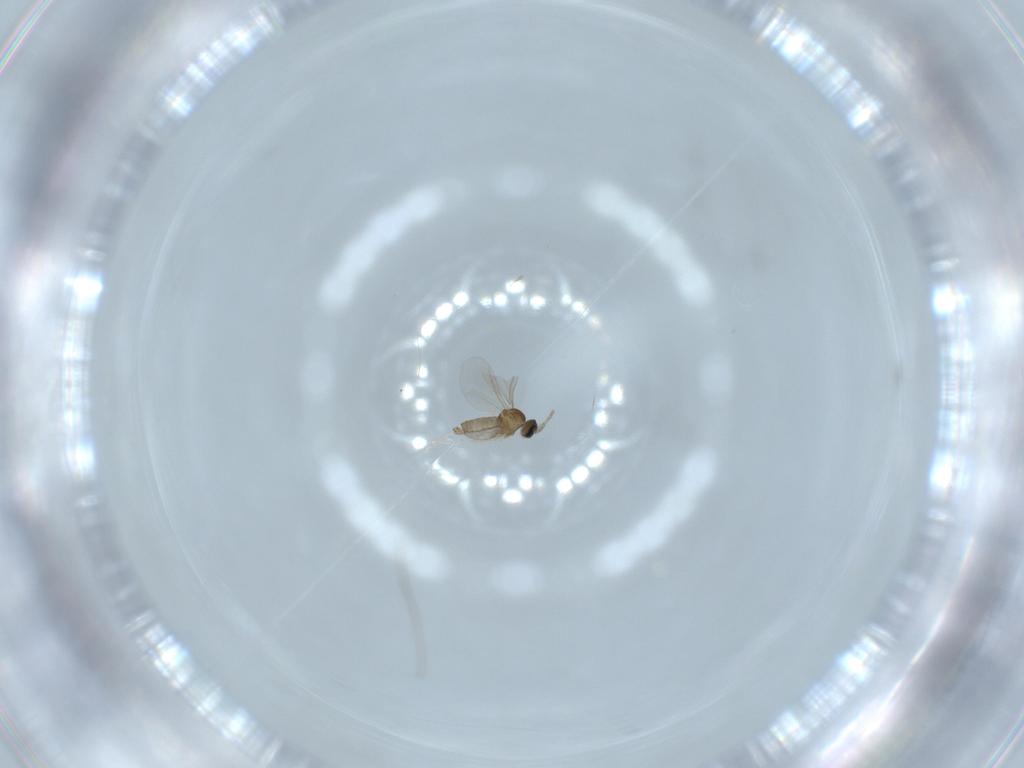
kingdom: Animalia
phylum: Arthropoda
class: Insecta
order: Diptera
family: Cecidomyiidae
